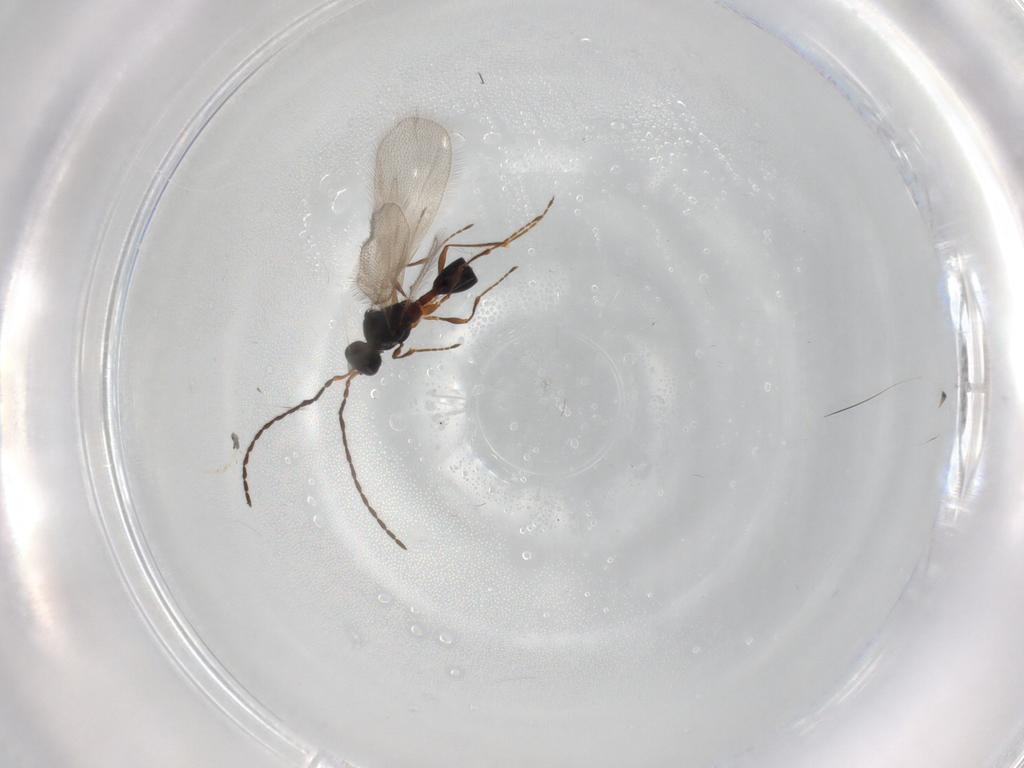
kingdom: Animalia
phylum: Arthropoda
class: Insecta
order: Hymenoptera
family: Diapriidae
